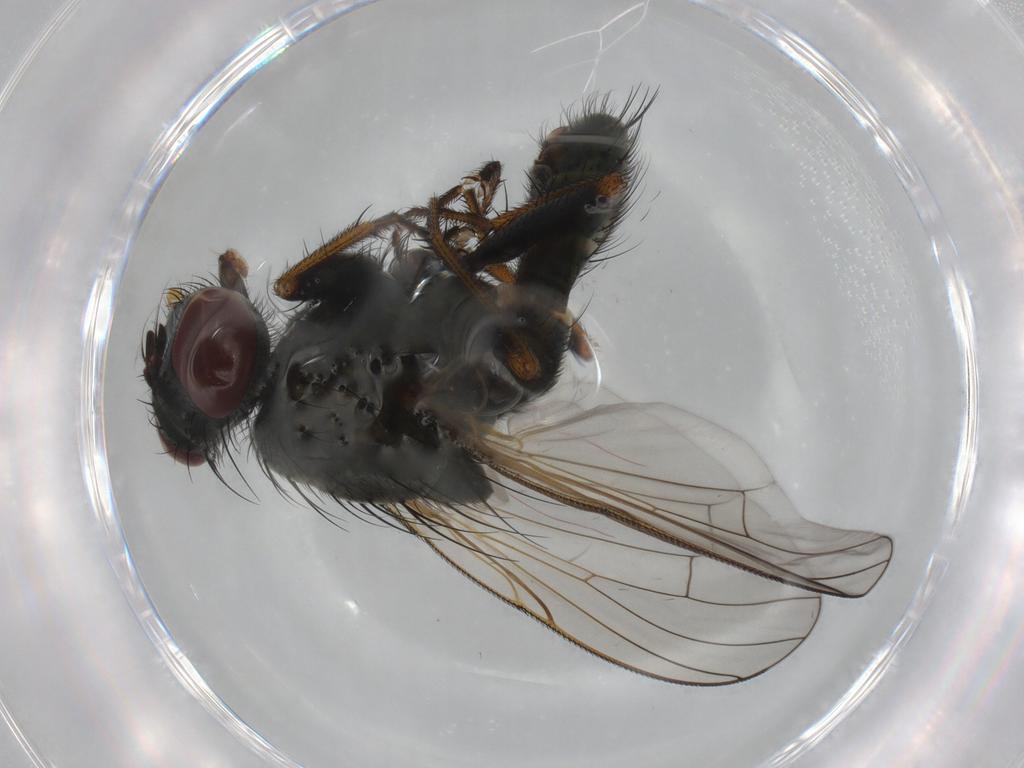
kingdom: Animalia
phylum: Arthropoda
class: Insecta
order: Diptera
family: Muscidae
